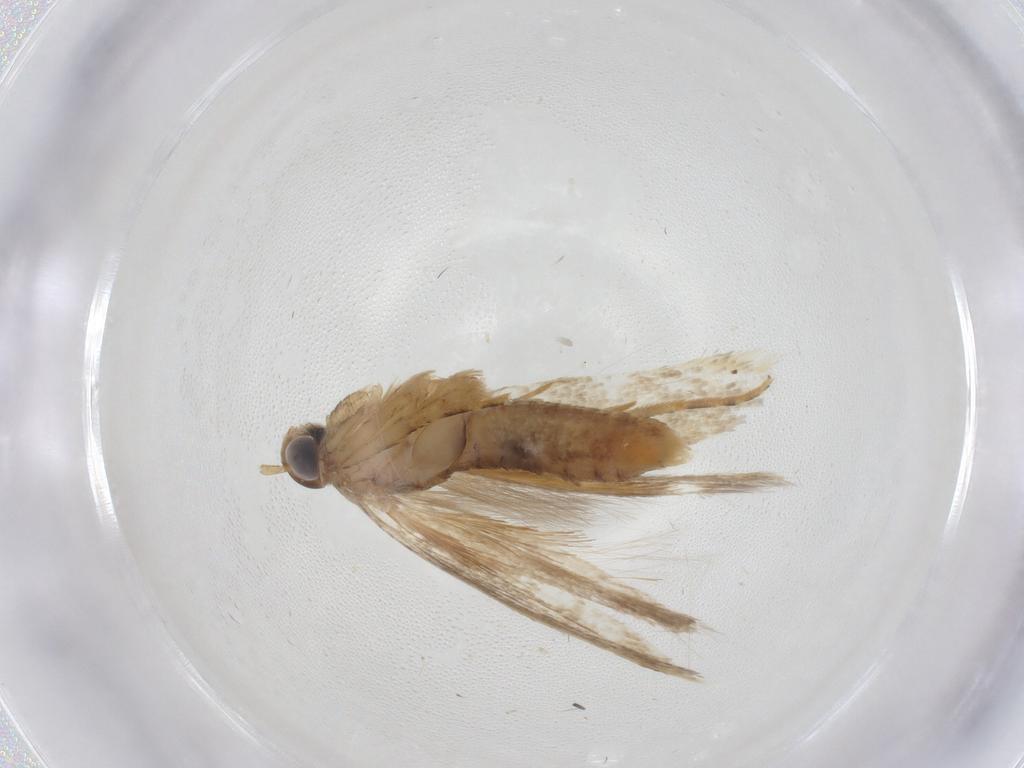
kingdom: Animalia
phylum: Arthropoda
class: Insecta
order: Lepidoptera
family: Gelechiidae
